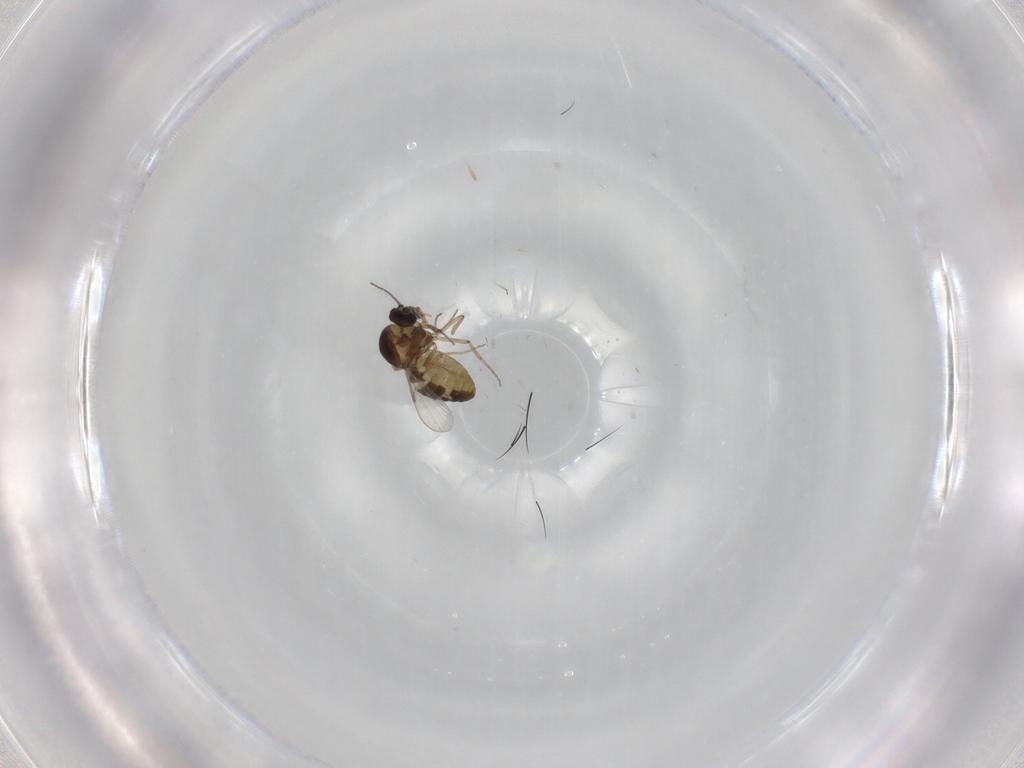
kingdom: Animalia
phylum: Arthropoda
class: Insecta
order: Diptera
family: Ceratopogonidae
